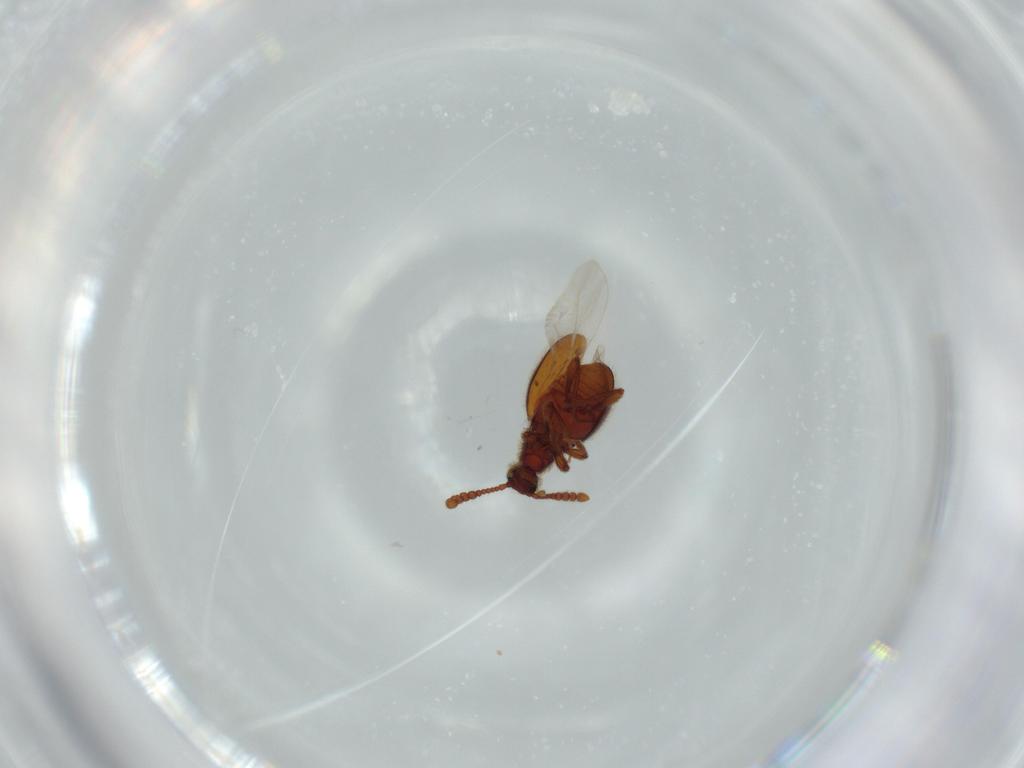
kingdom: Animalia
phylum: Arthropoda
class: Insecta
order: Coleoptera
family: Staphylinidae
